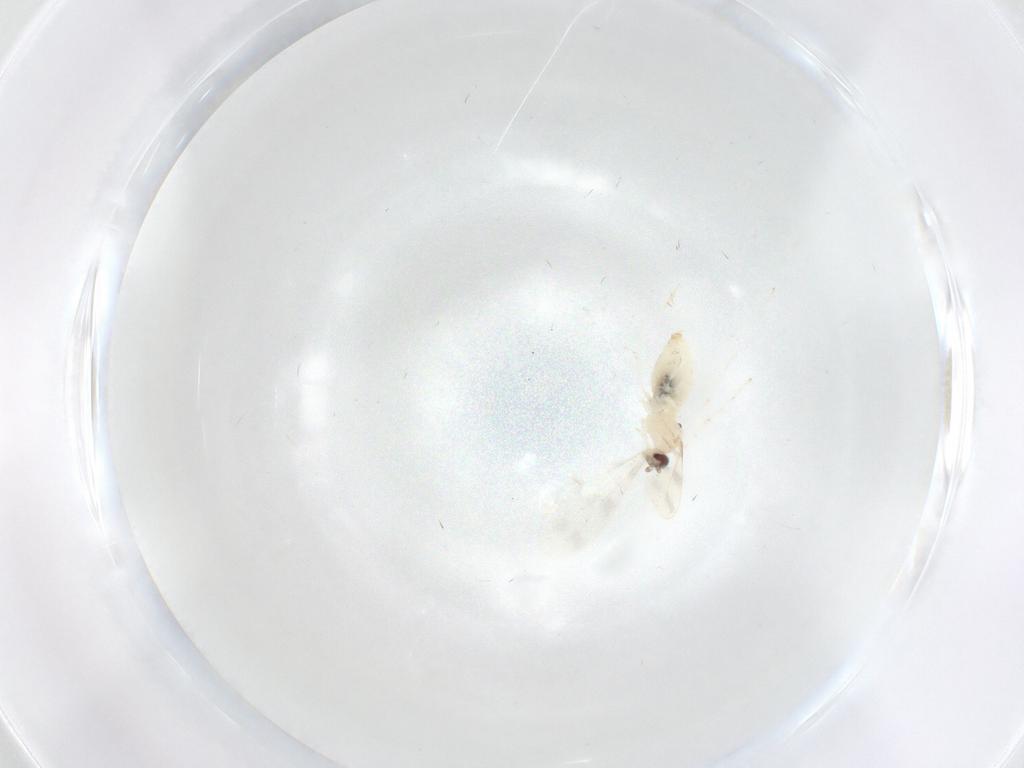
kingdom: Animalia
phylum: Arthropoda
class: Insecta
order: Diptera
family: Cecidomyiidae
